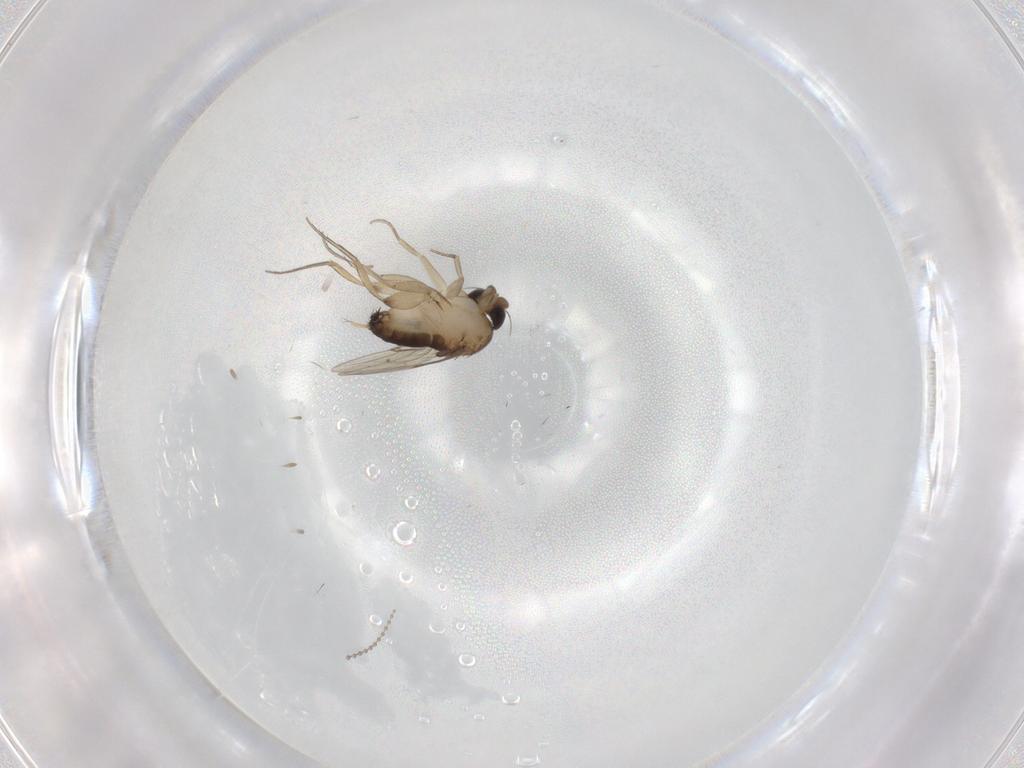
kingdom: Animalia
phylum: Arthropoda
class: Insecta
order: Diptera
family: Phoridae
